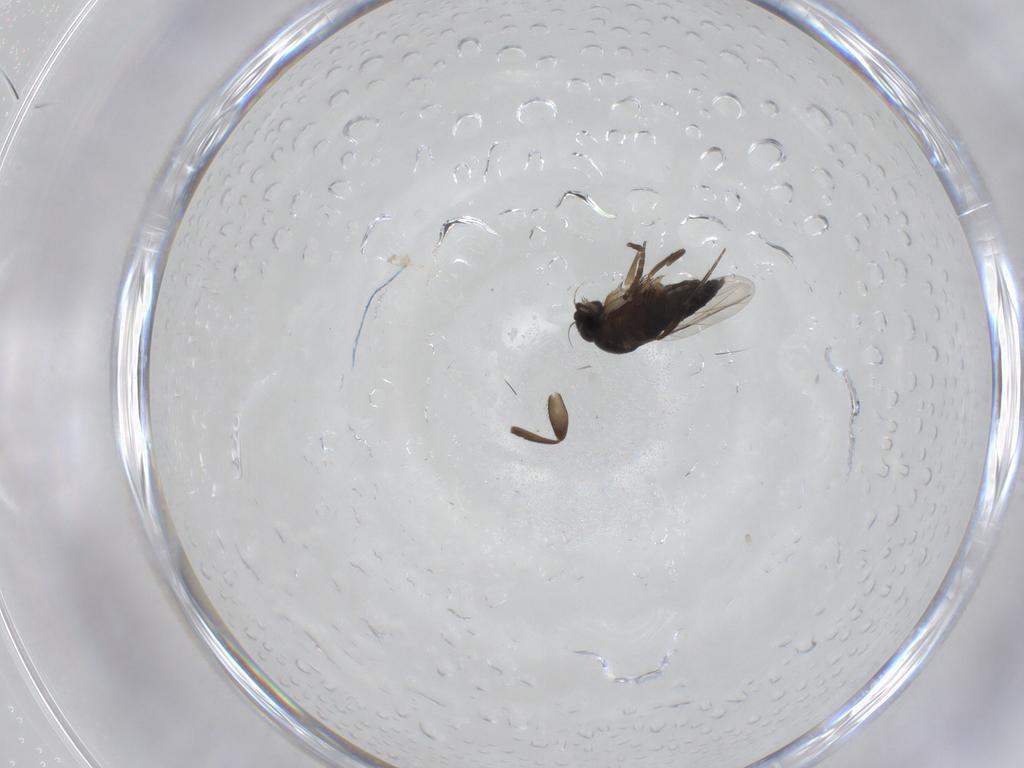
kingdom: Animalia
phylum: Arthropoda
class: Insecta
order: Diptera
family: Phoridae
